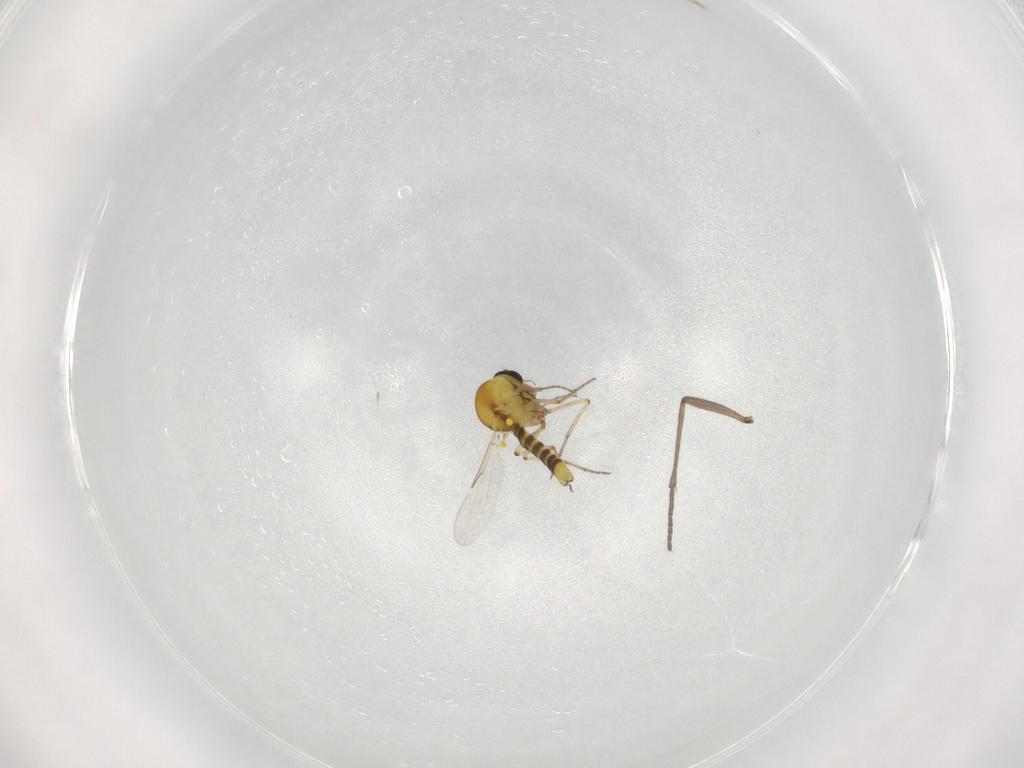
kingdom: Animalia
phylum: Arthropoda
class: Insecta
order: Diptera
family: Ceratopogonidae
